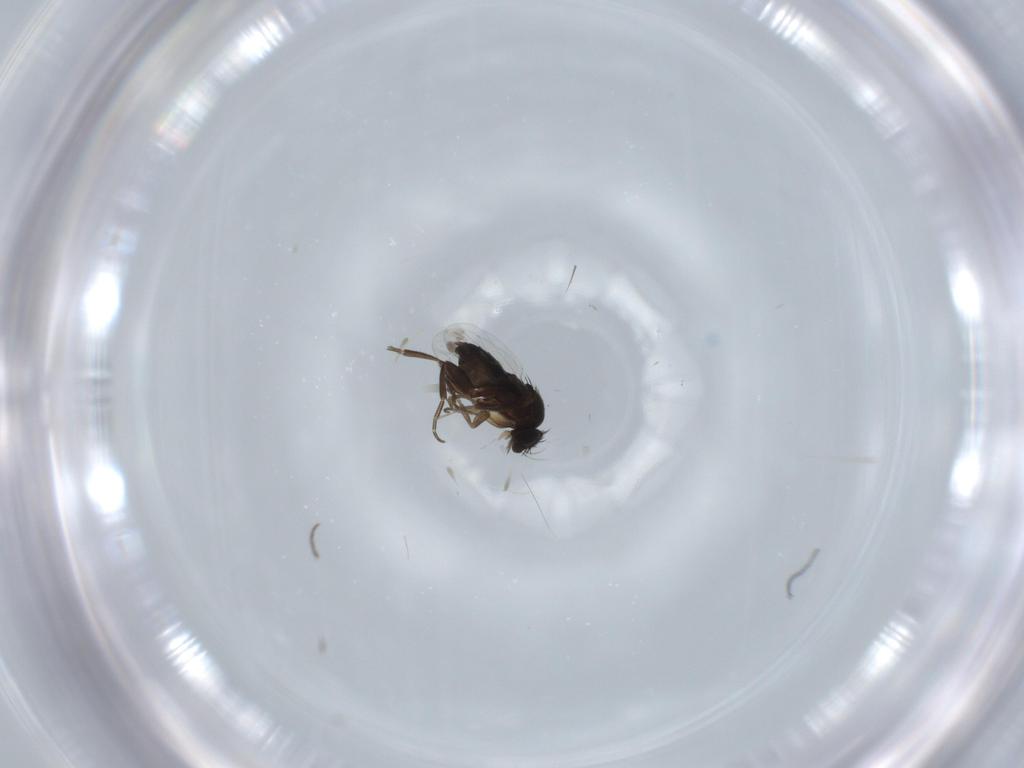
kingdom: Animalia
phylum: Arthropoda
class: Insecta
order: Diptera
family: Phoridae
